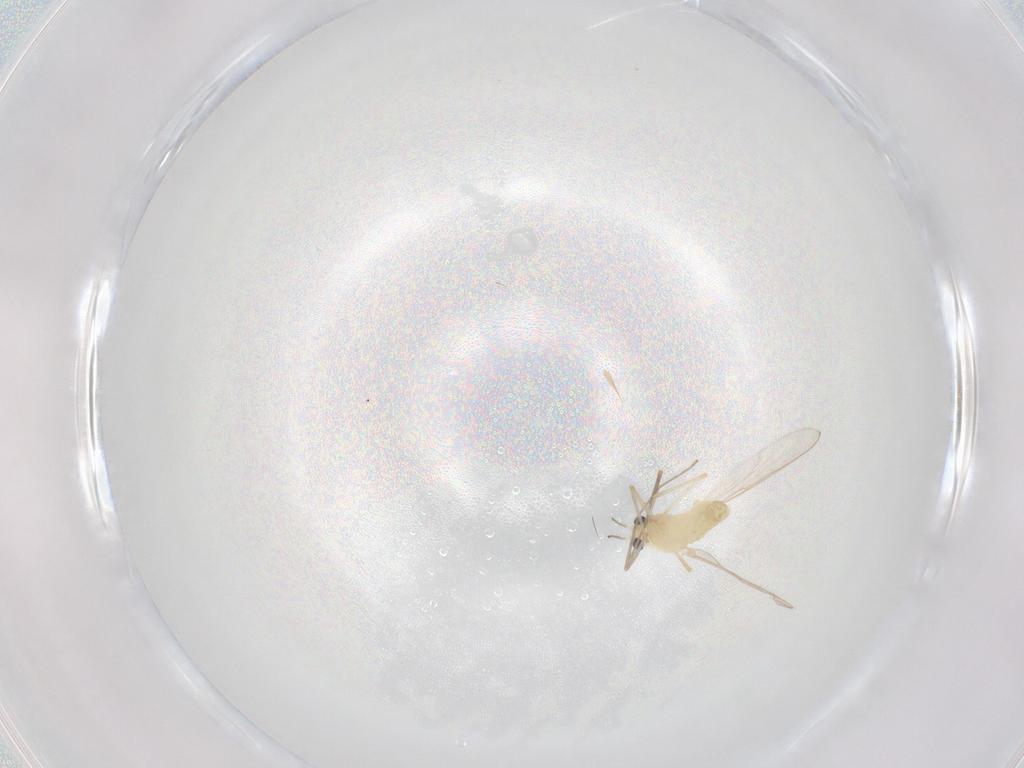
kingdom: Animalia
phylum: Arthropoda
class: Insecta
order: Diptera
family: Chironomidae
